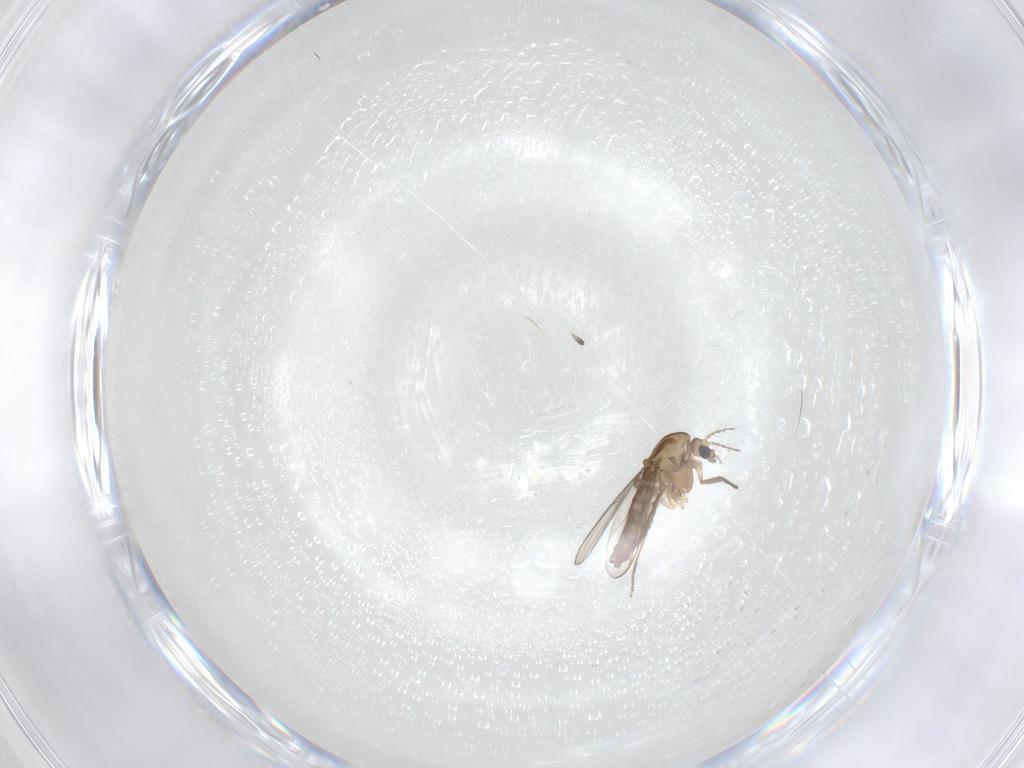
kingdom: Animalia
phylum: Arthropoda
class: Insecta
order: Diptera
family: Chironomidae
